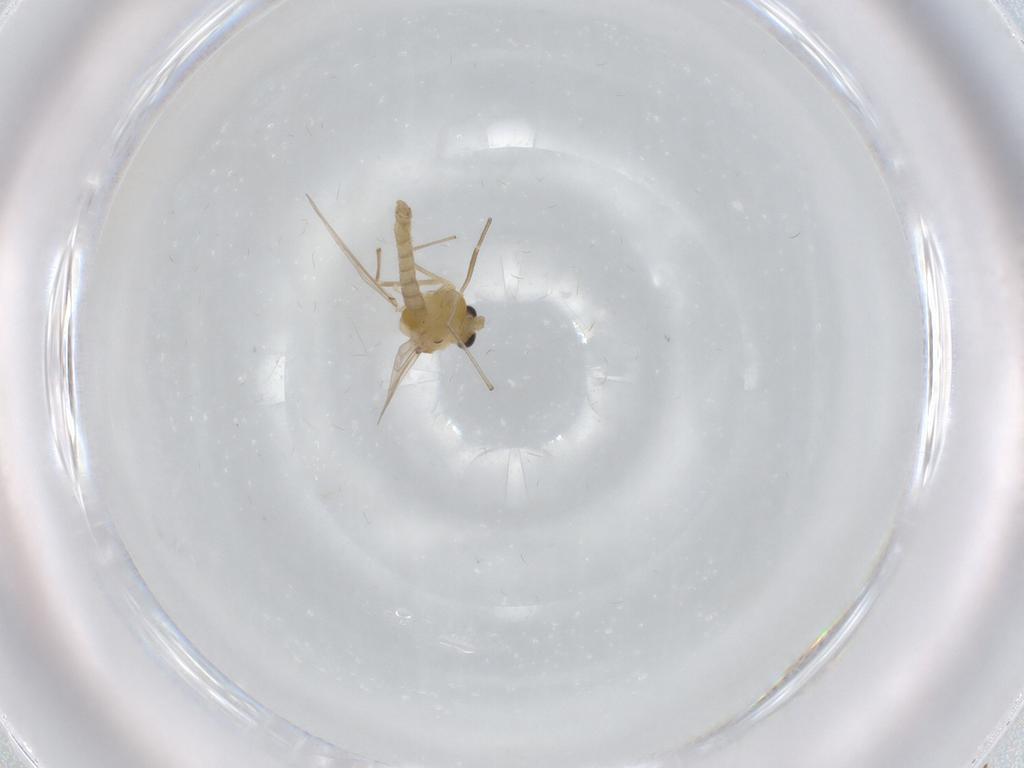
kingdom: Animalia
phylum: Arthropoda
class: Insecta
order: Diptera
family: Chironomidae
